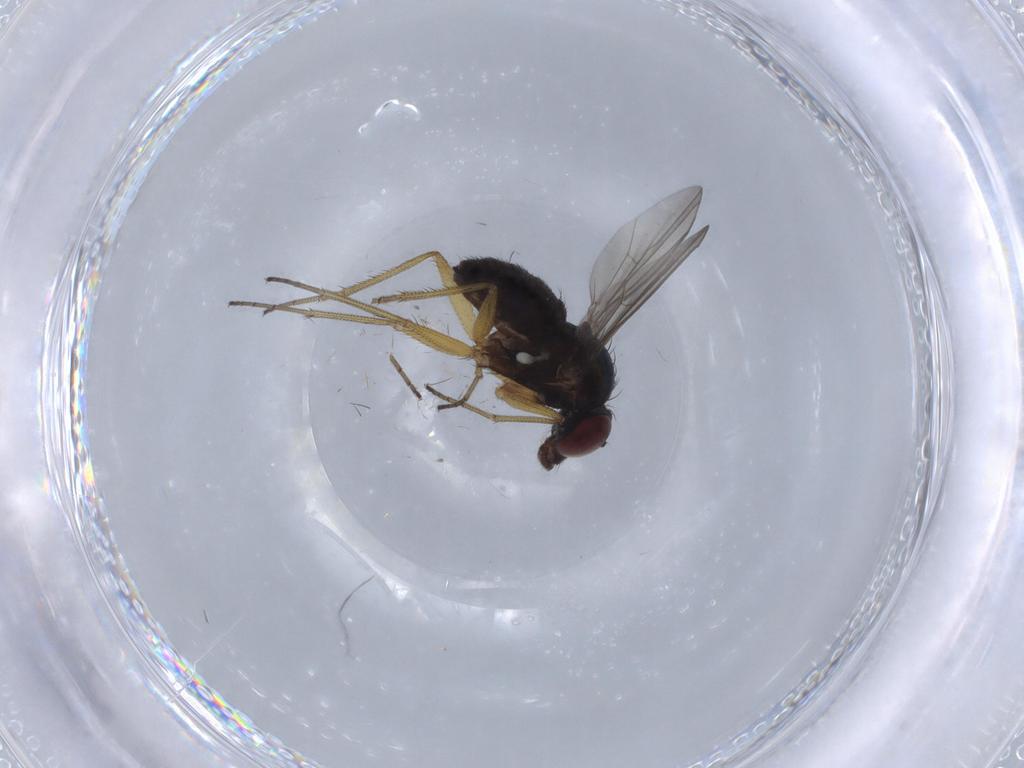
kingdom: Animalia
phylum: Arthropoda
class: Insecta
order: Diptera
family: Dolichopodidae
